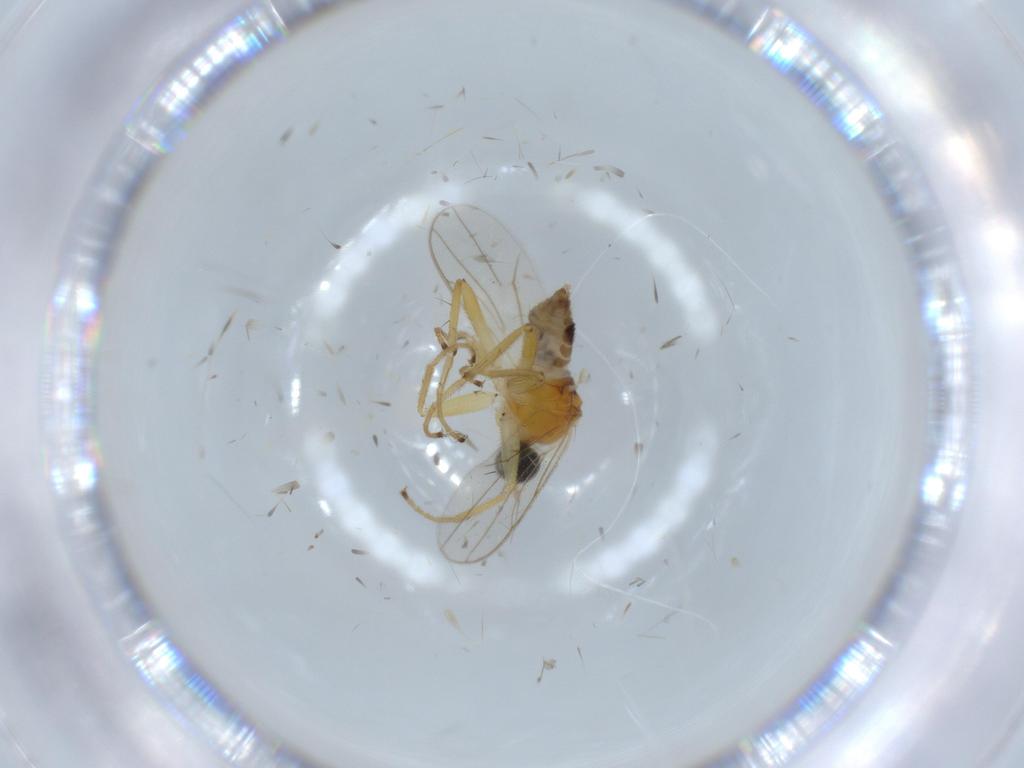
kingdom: Animalia
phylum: Arthropoda
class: Insecta
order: Diptera
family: Hybotidae
